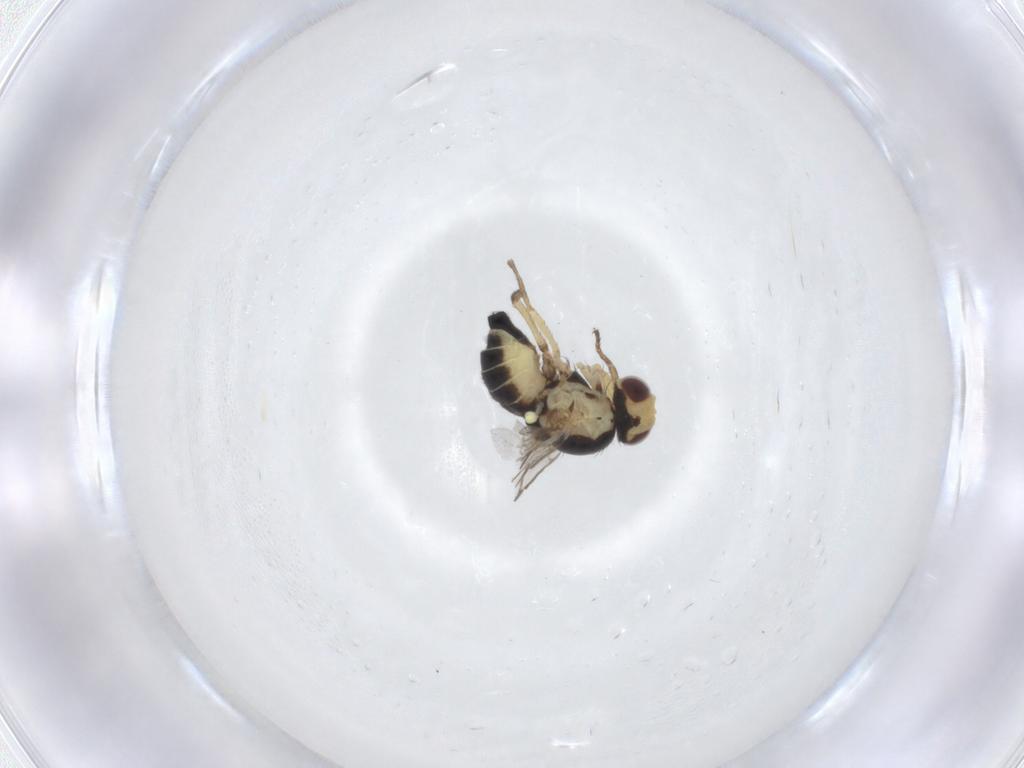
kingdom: Animalia
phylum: Arthropoda
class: Insecta
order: Diptera
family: Agromyzidae
